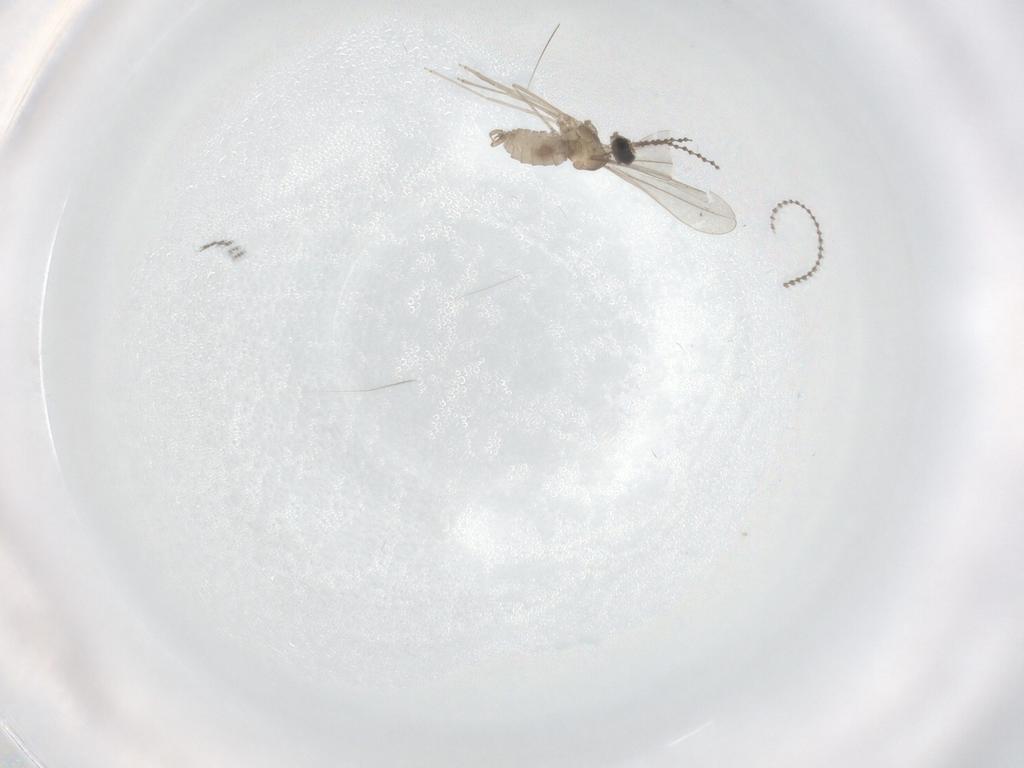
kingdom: Animalia
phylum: Arthropoda
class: Insecta
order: Diptera
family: Cecidomyiidae
